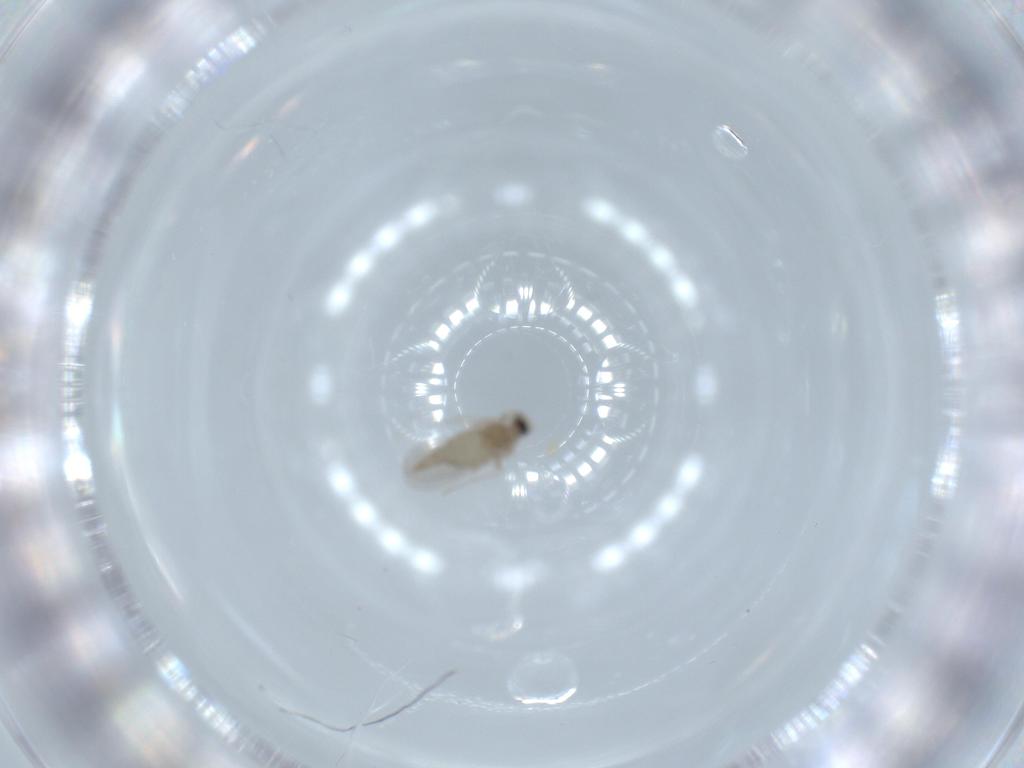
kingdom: Animalia
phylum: Arthropoda
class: Insecta
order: Diptera
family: Cecidomyiidae
